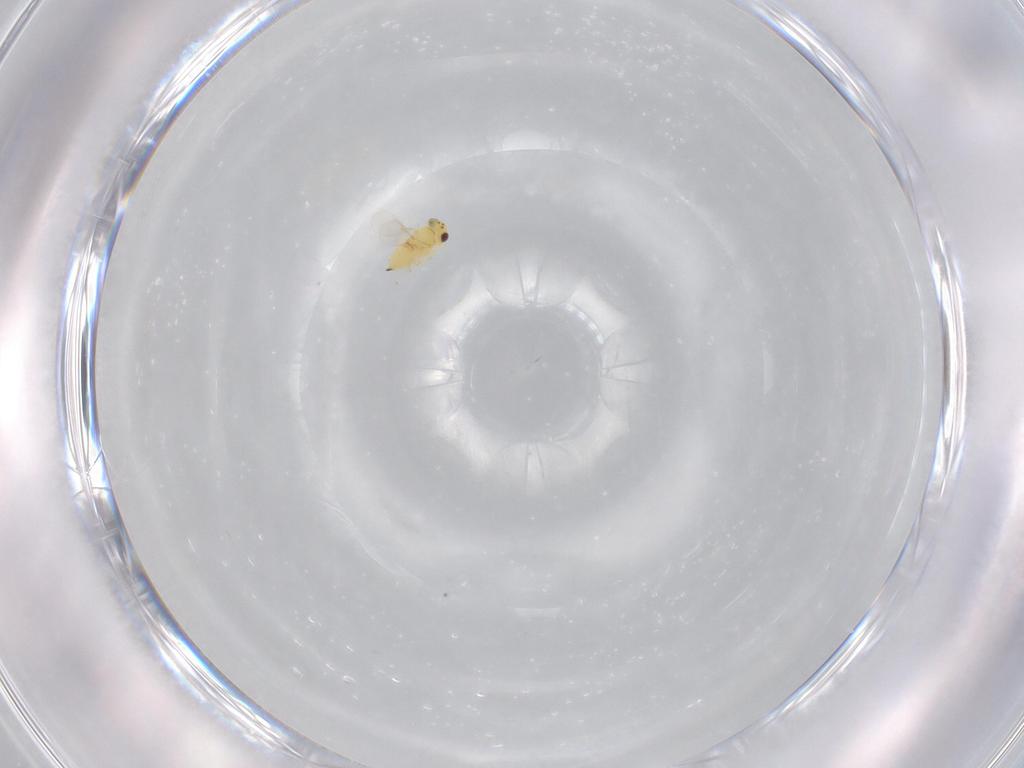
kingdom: Animalia
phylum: Arthropoda
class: Insecta
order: Hymenoptera
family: Aphelinidae
